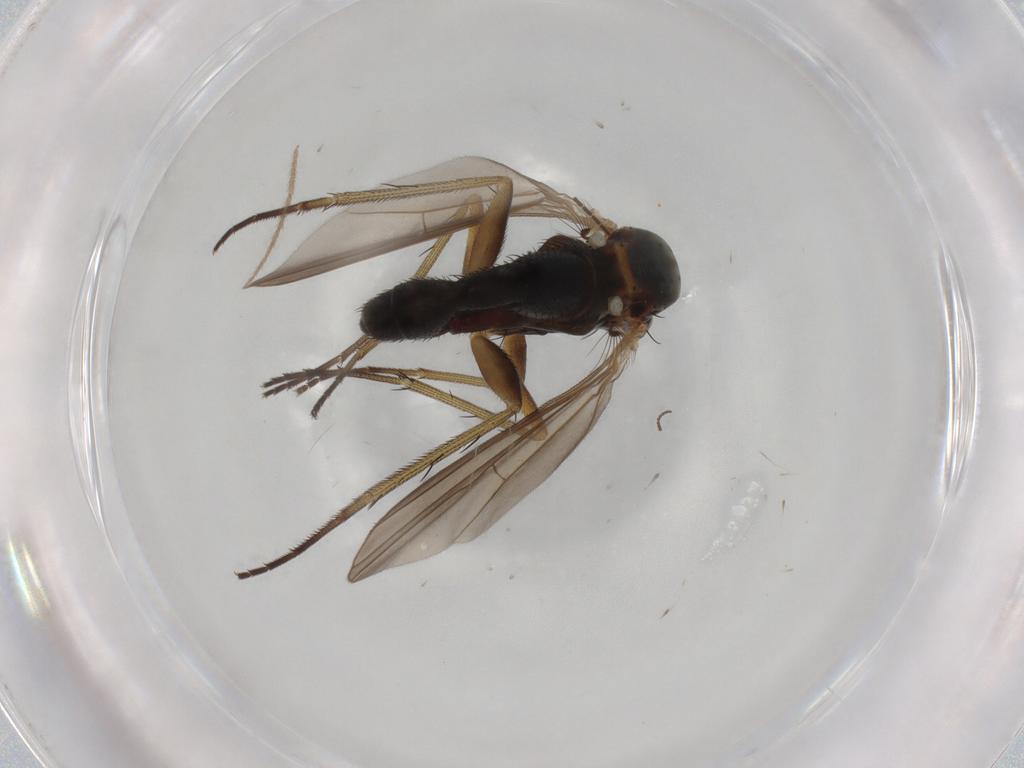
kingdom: Animalia
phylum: Arthropoda
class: Insecta
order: Diptera
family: Dolichopodidae
